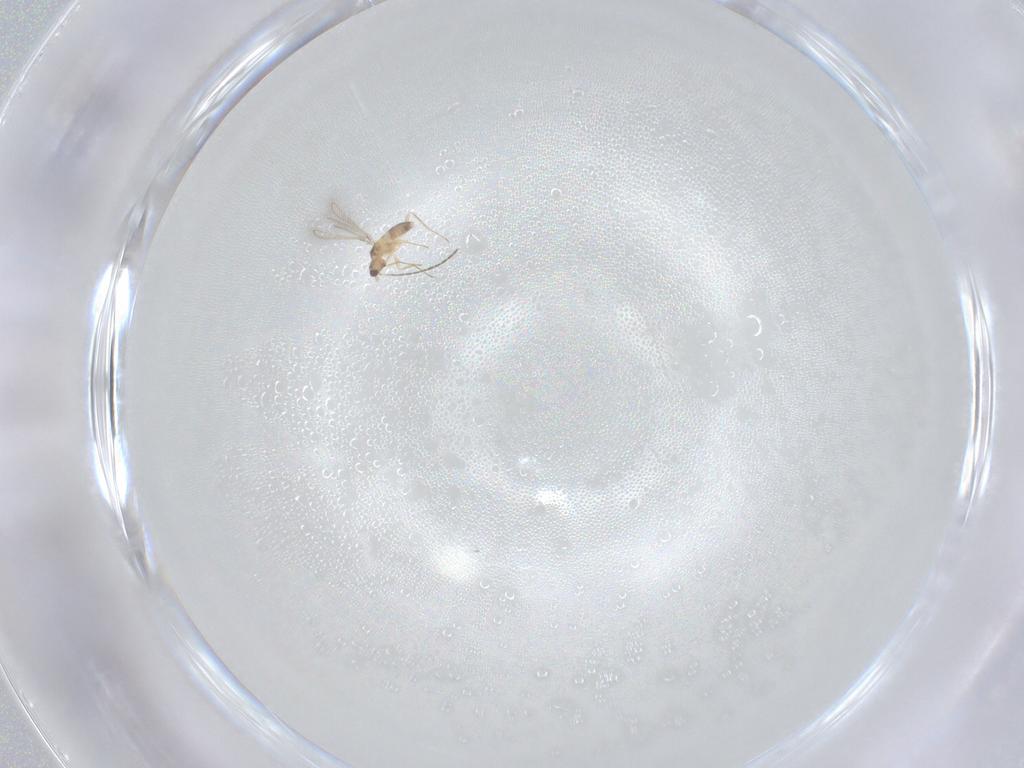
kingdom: Animalia
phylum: Arthropoda
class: Insecta
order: Hymenoptera
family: Mymaridae
